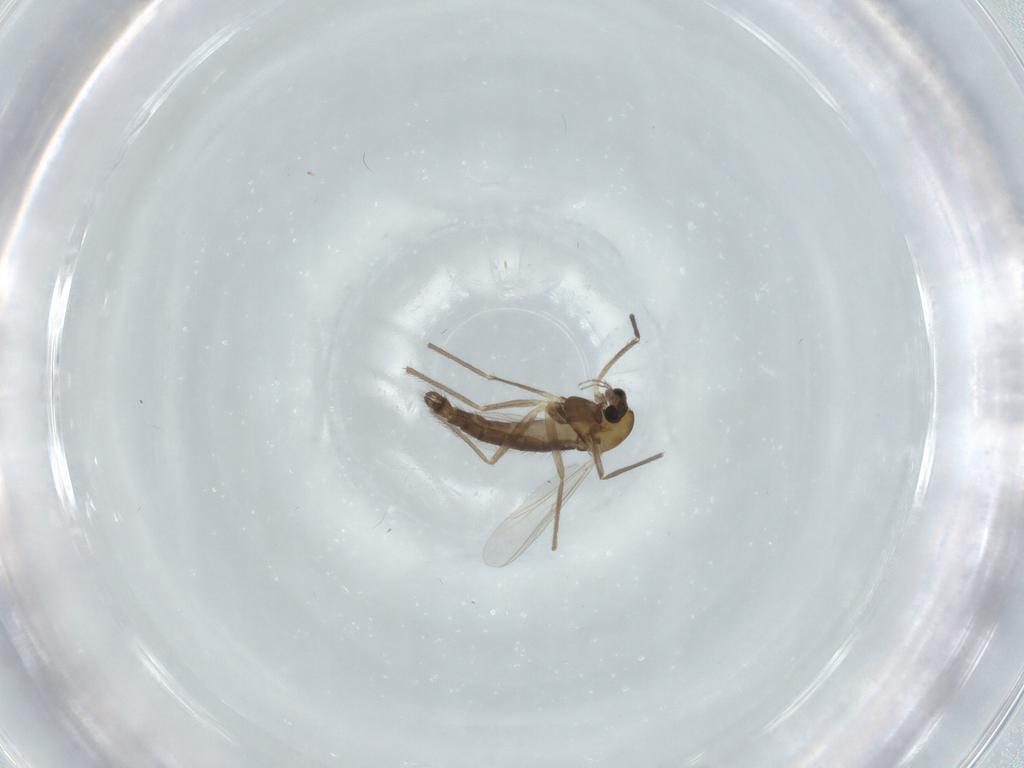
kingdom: Animalia
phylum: Arthropoda
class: Insecta
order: Diptera
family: Chironomidae
